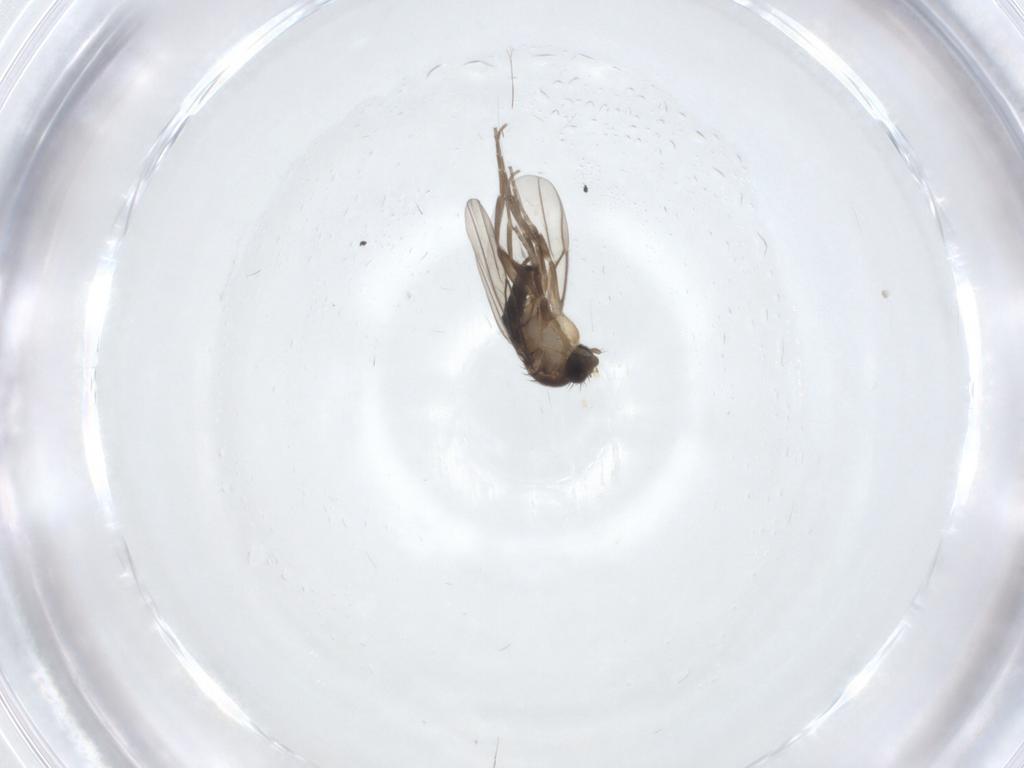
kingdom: Animalia
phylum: Arthropoda
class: Insecta
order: Diptera
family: Phoridae
